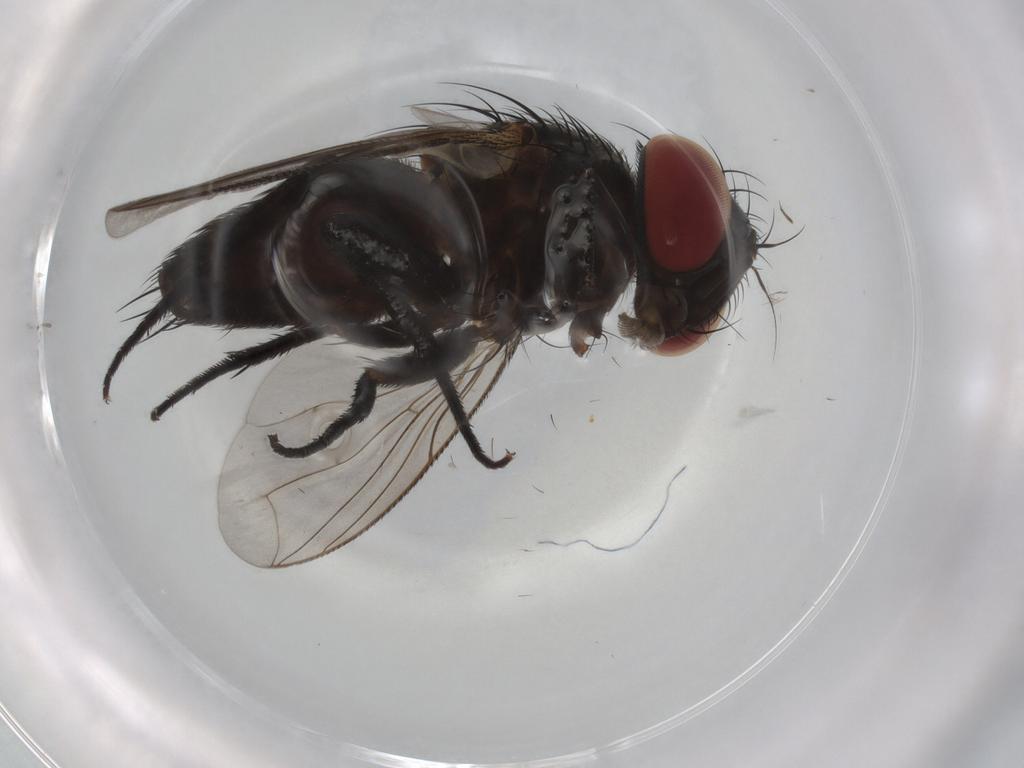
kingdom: Animalia
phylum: Arthropoda
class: Insecta
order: Diptera
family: Sarcophagidae
